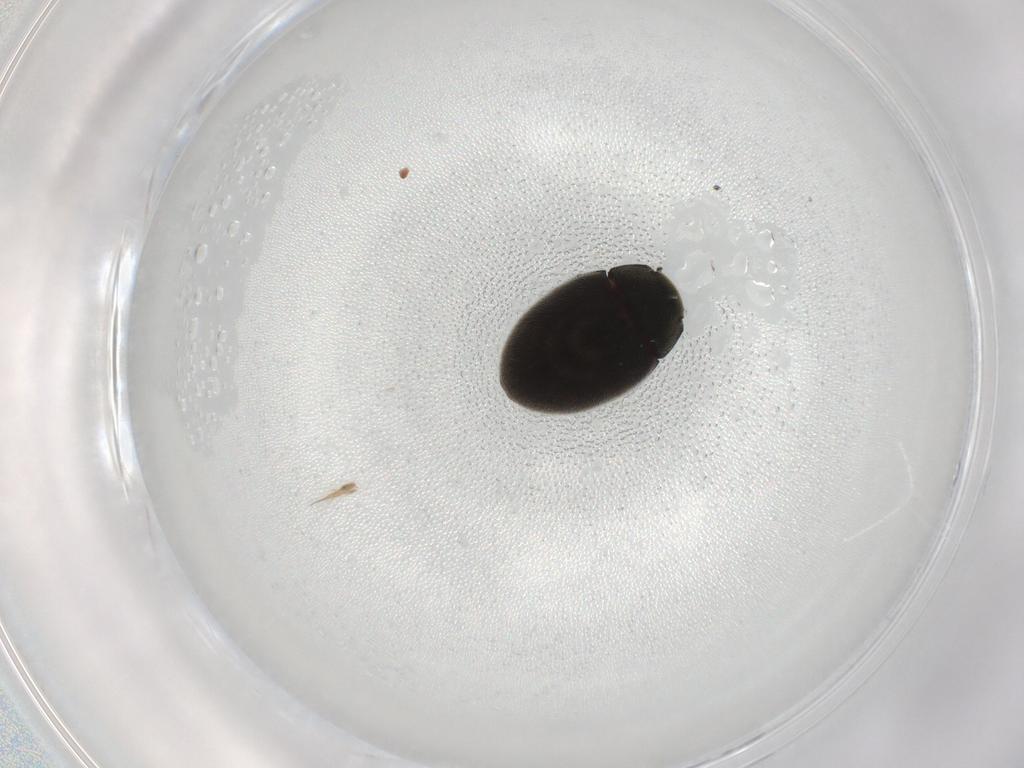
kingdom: Animalia
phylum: Arthropoda
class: Insecta
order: Coleoptera
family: Limnichidae
